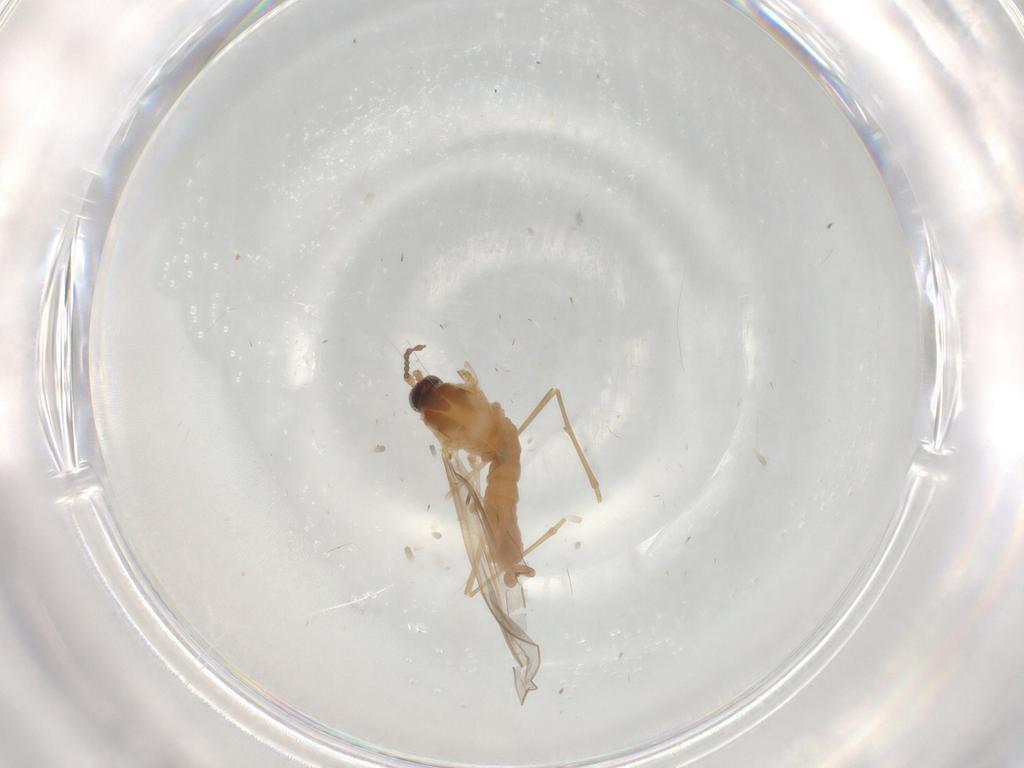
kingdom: Animalia
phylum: Arthropoda
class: Insecta
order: Diptera
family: Cecidomyiidae
